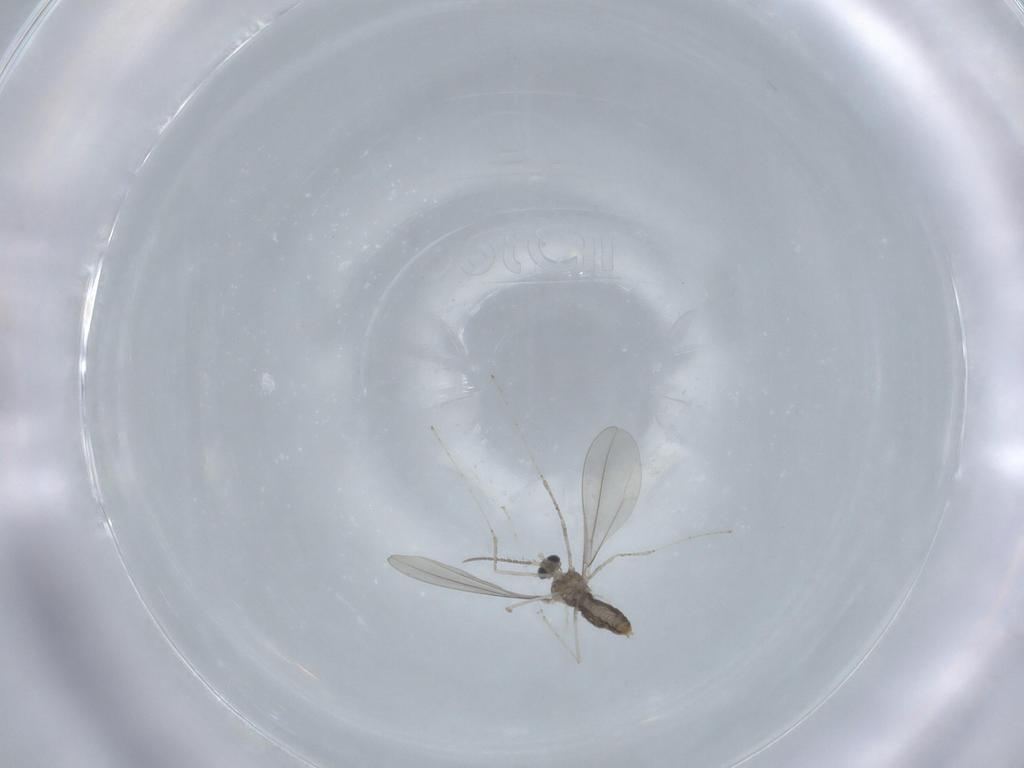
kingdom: Animalia
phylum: Arthropoda
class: Insecta
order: Diptera
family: Cecidomyiidae
